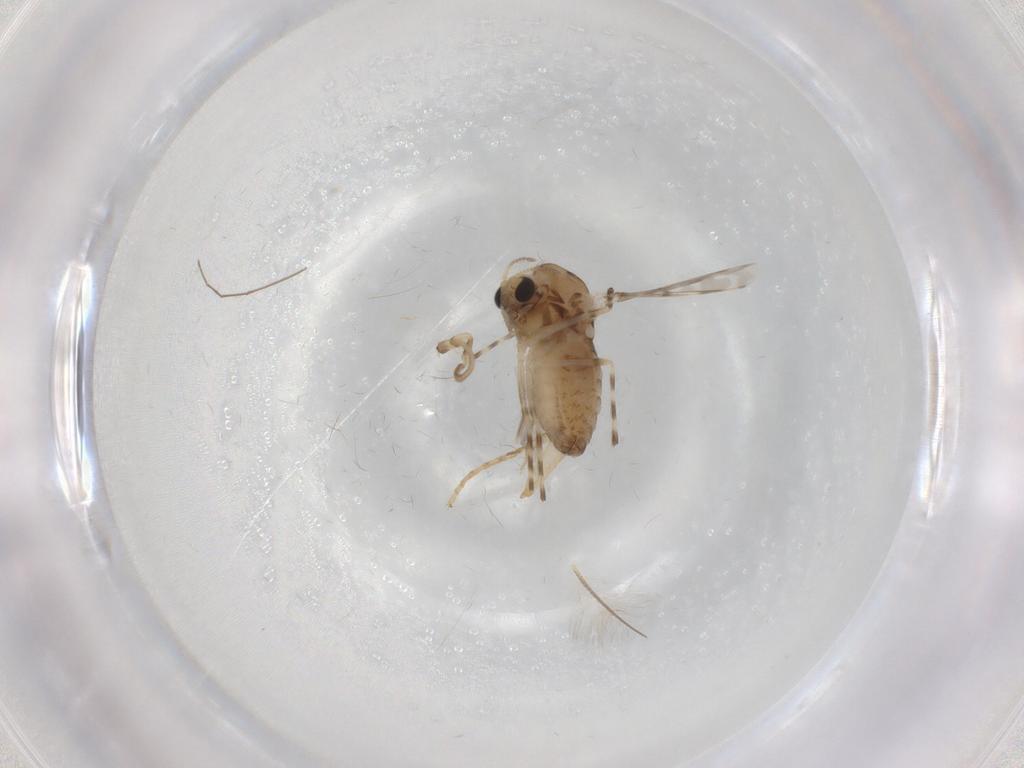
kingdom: Animalia
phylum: Arthropoda
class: Insecta
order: Diptera
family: Chironomidae
